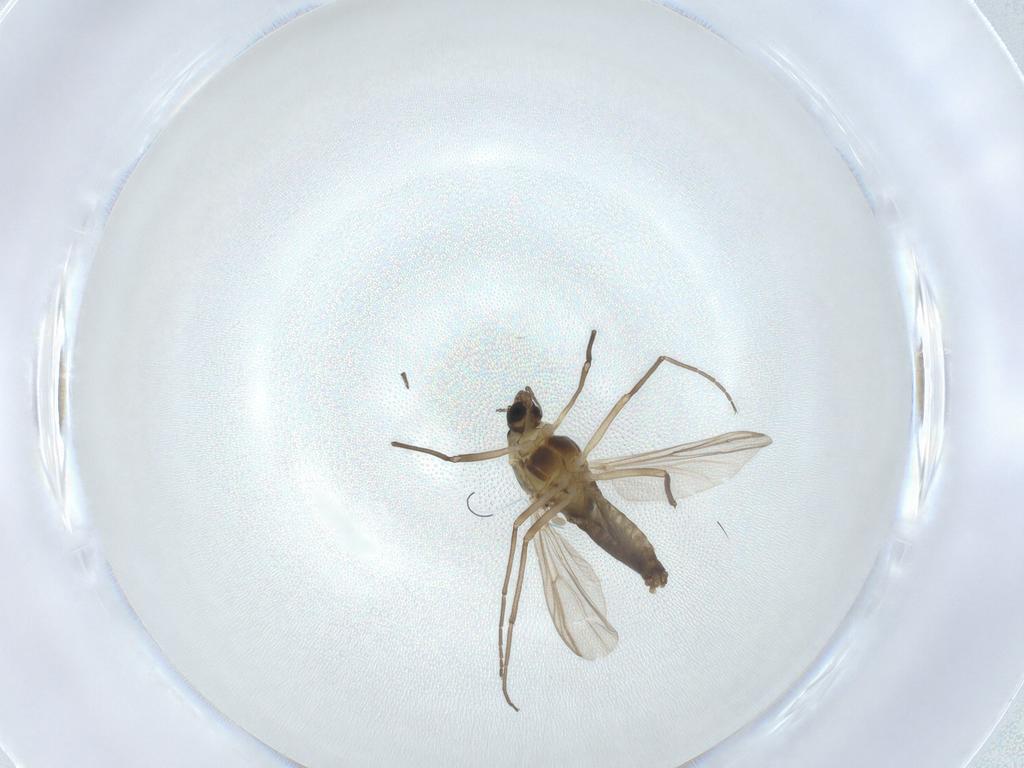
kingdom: Animalia
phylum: Arthropoda
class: Insecta
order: Diptera
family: Chironomidae
